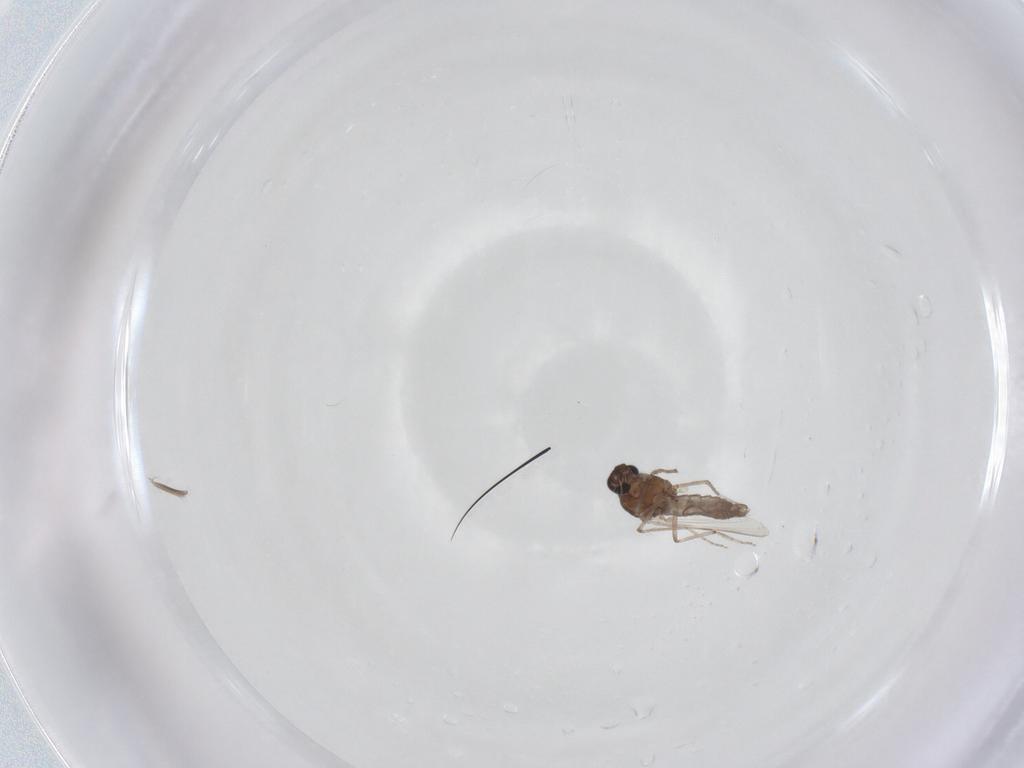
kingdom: Animalia
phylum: Arthropoda
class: Insecta
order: Diptera
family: Ceratopogonidae
